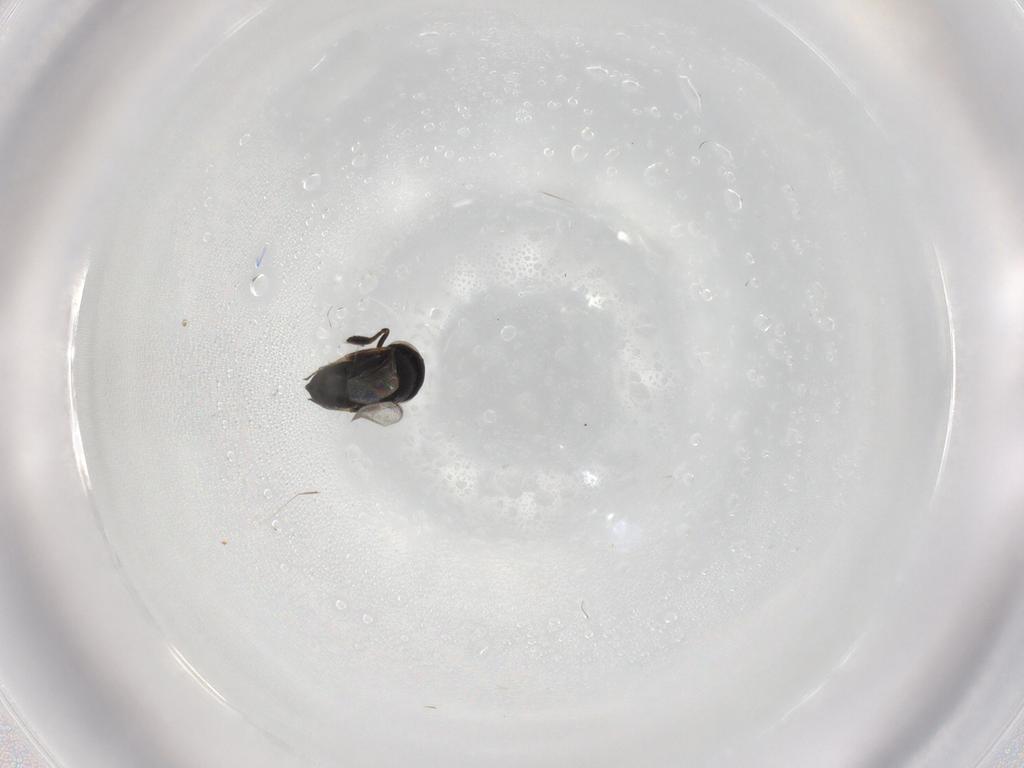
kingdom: Animalia
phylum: Arthropoda
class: Insecta
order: Hymenoptera
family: Scelionidae
